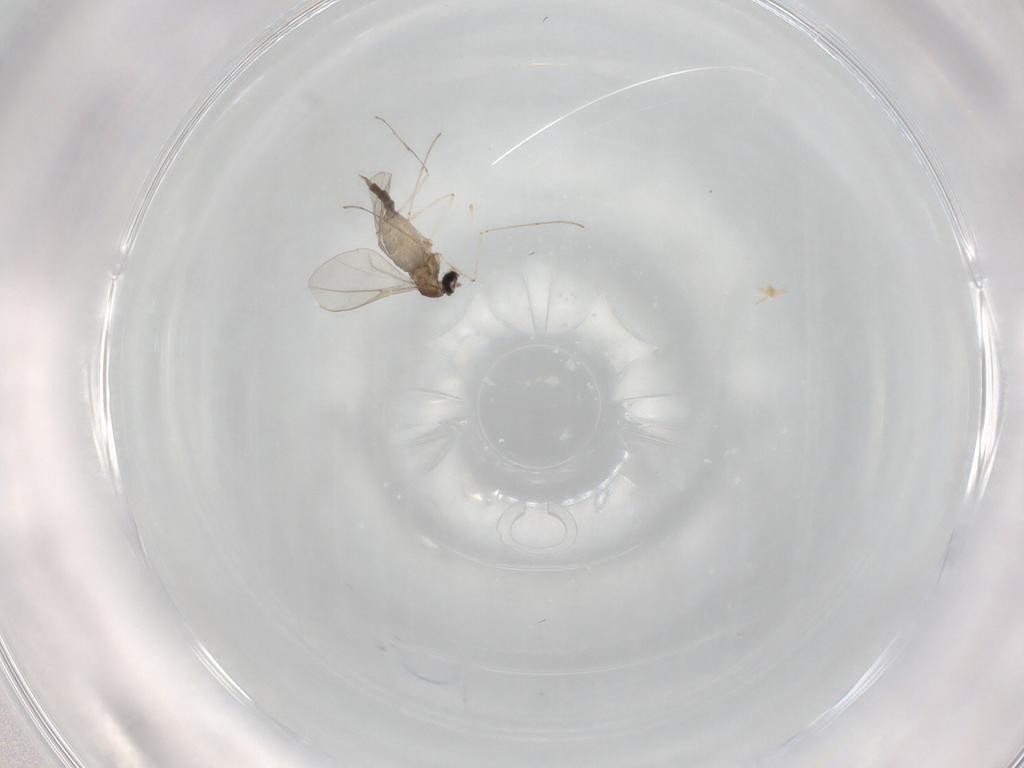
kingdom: Animalia
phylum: Arthropoda
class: Insecta
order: Diptera
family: Cecidomyiidae
